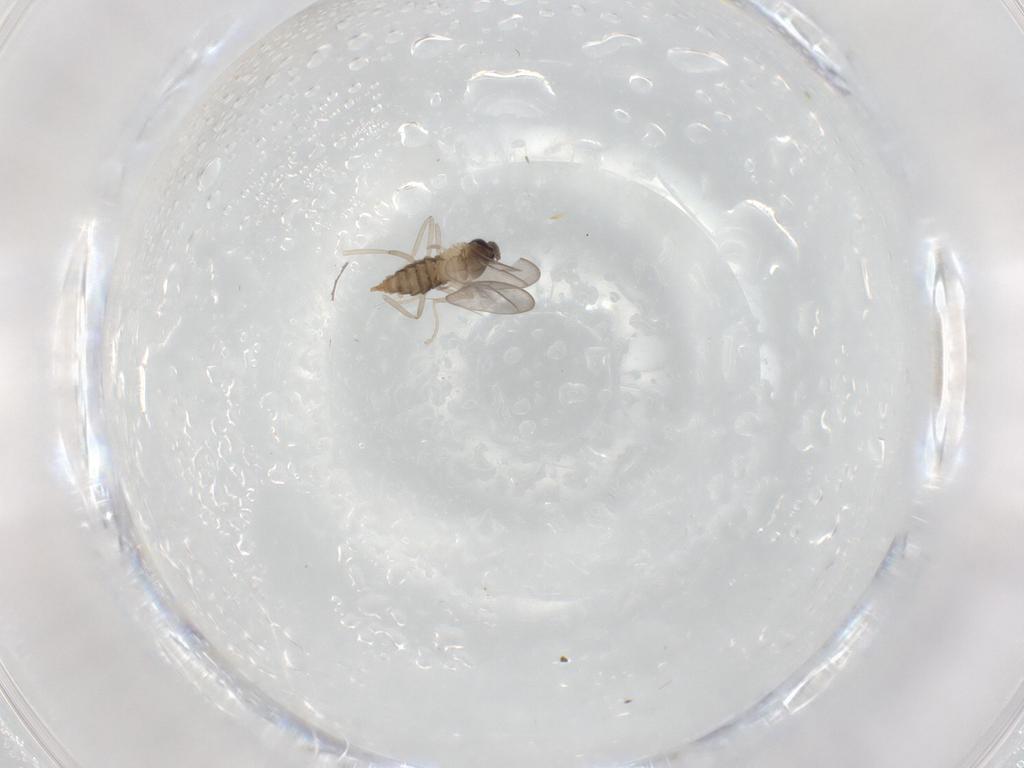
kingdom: Animalia
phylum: Arthropoda
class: Insecta
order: Diptera
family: Cecidomyiidae
